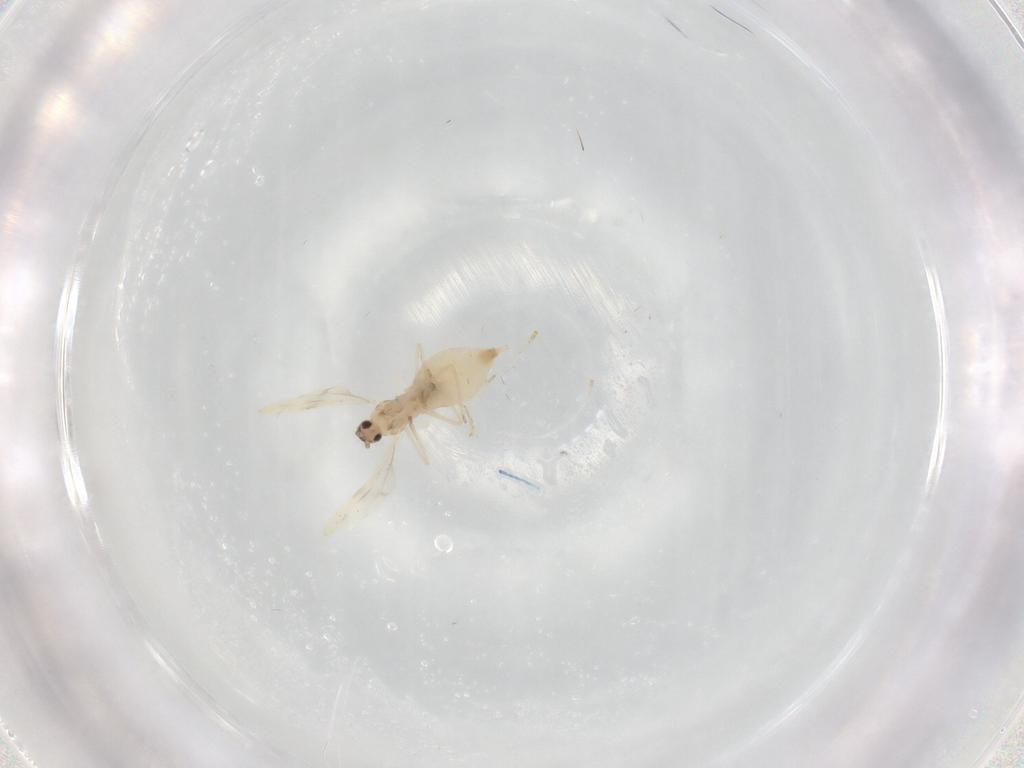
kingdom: Animalia
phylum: Arthropoda
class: Insecta
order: Diptera
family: Cecidomyiidae
